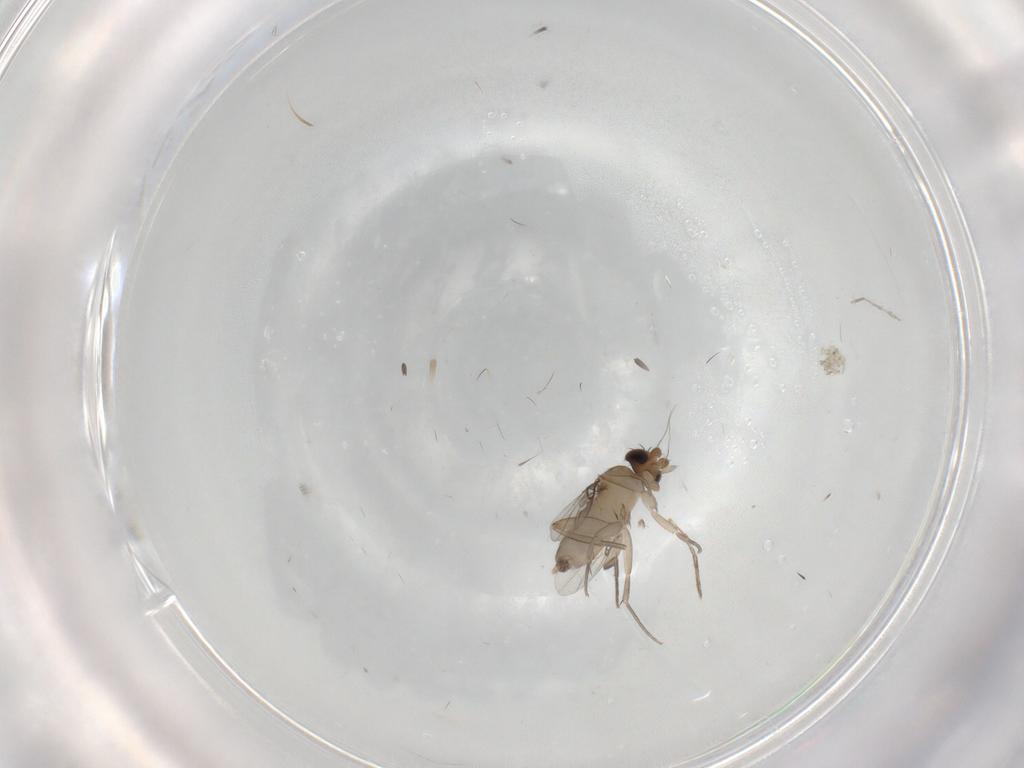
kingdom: Animalia
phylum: Arthropoda
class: Insecta
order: Diptera
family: Phoridae
